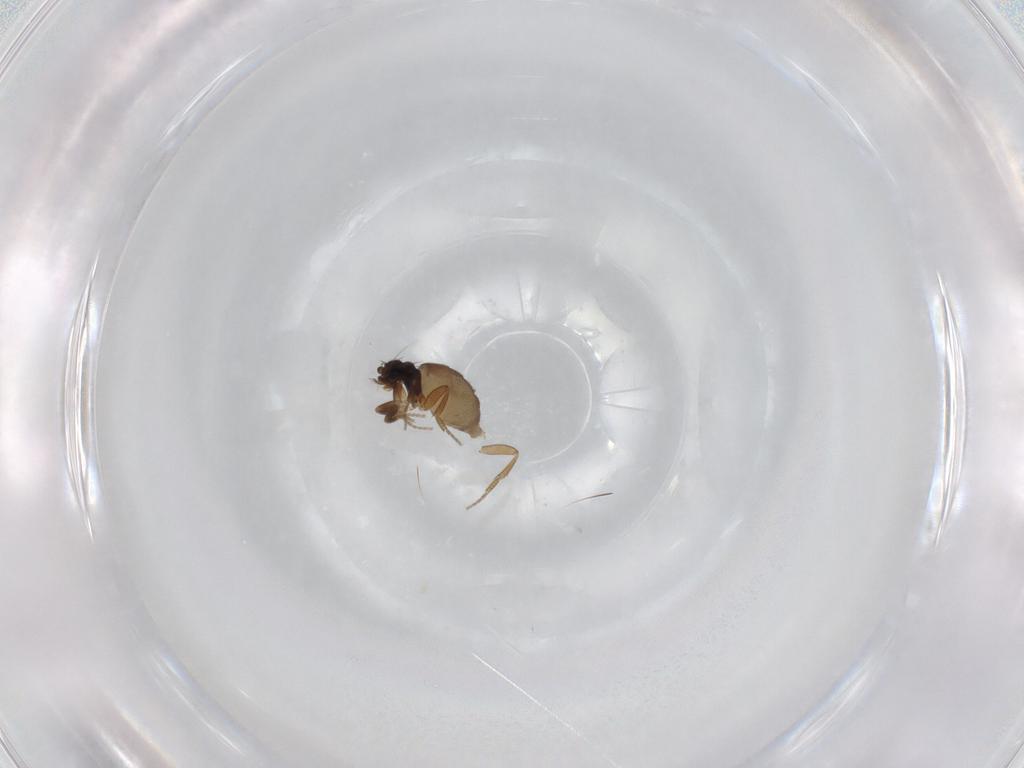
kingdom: Animalia
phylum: Arthropoda
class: Insecta
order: Diptera
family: Phoridae
